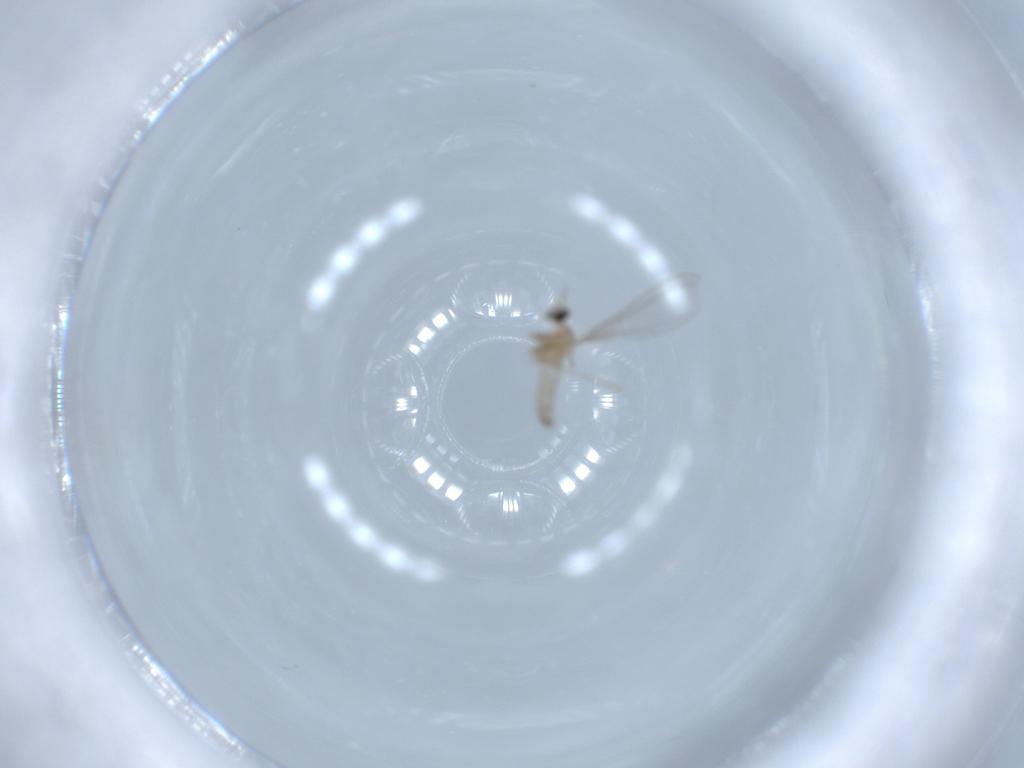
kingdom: Animalia
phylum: Arthropoda
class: Insecta
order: Diptera
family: Cecidomyiidae
